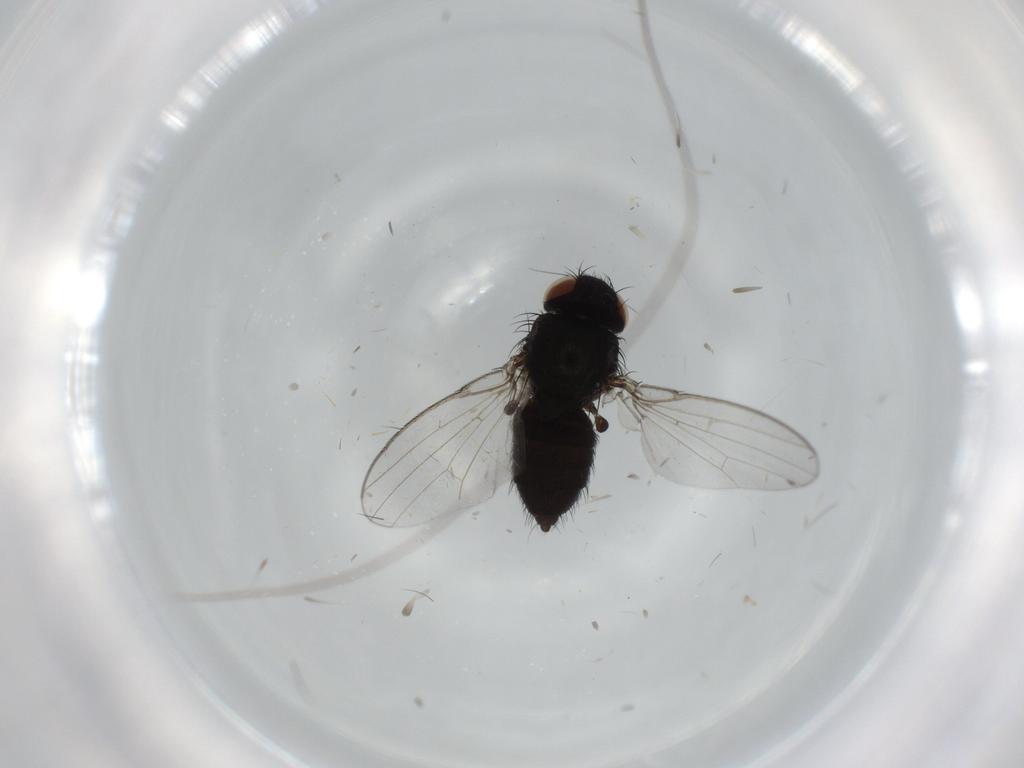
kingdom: Animalia
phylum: Arthropoda
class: Insecta
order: Diptera
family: Milichiidae
